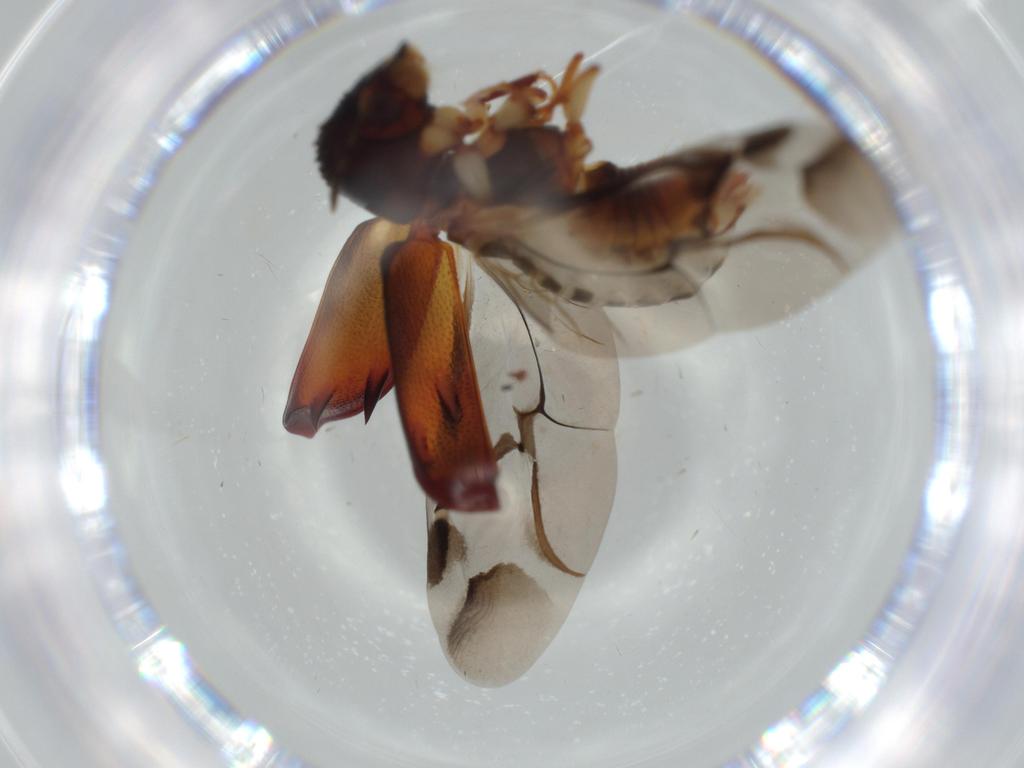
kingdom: Animalia
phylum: Arthropoda
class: Insecta
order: Coleoptera
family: Bostrichidae
